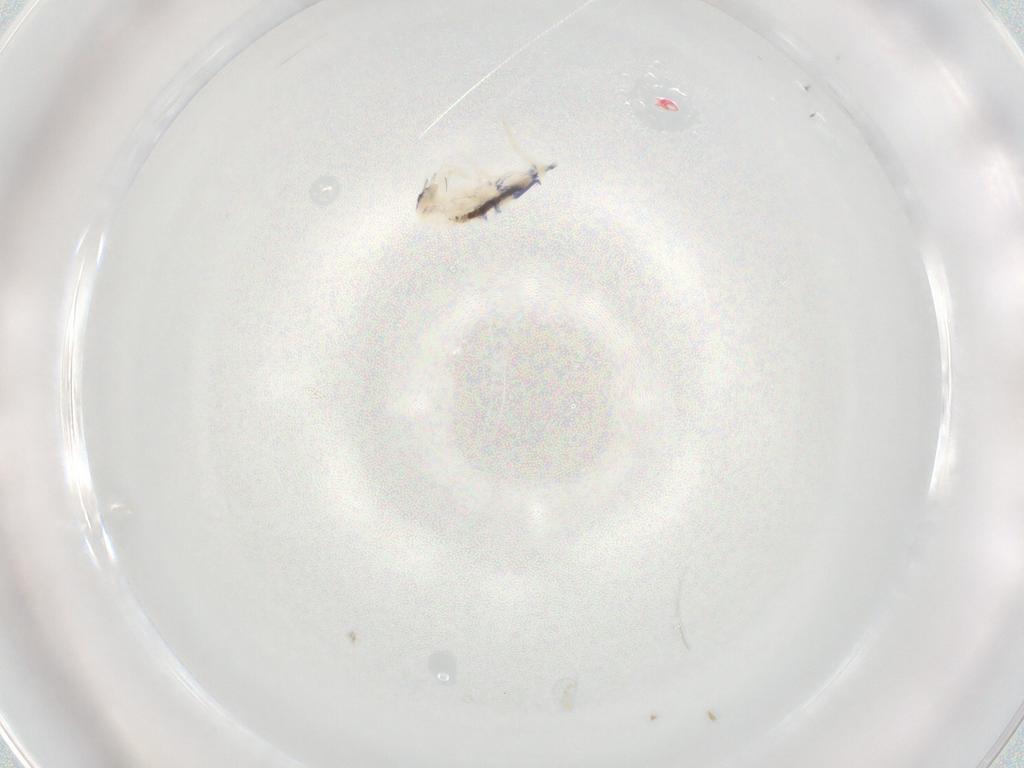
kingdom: Animalia
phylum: Arthropoda
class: Collembola
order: Entomobryomorpha
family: Entomobryidae
